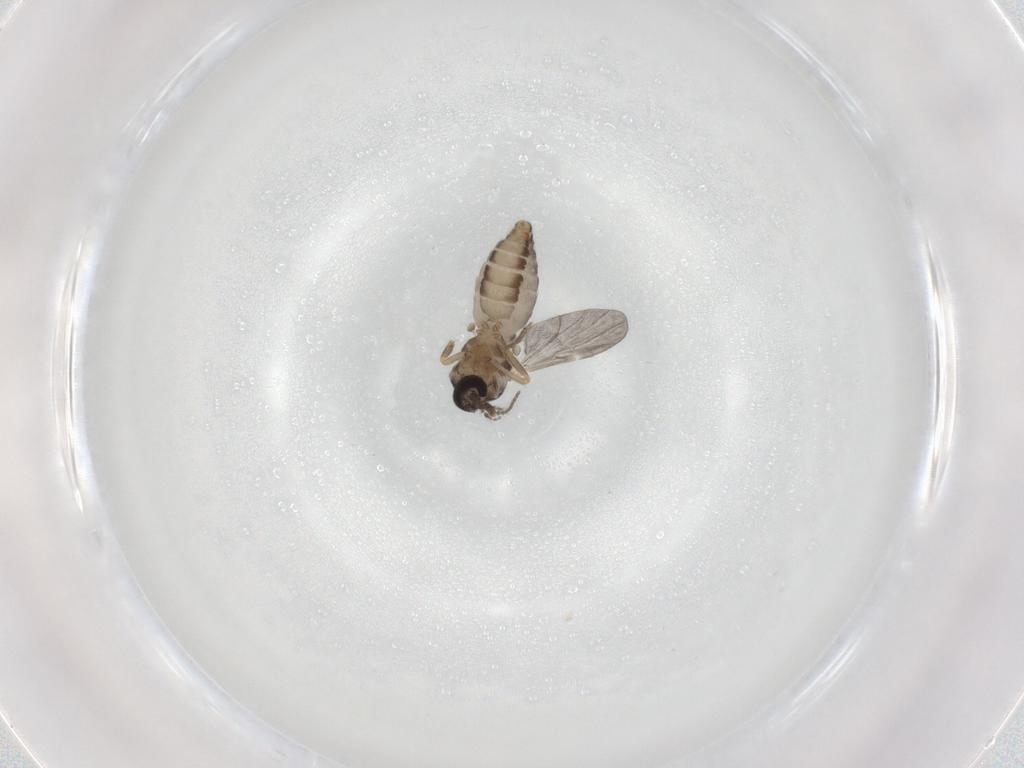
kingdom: Animalia
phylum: Arthropoda
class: Insecta
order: Diptera
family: Ceratopogonidae
